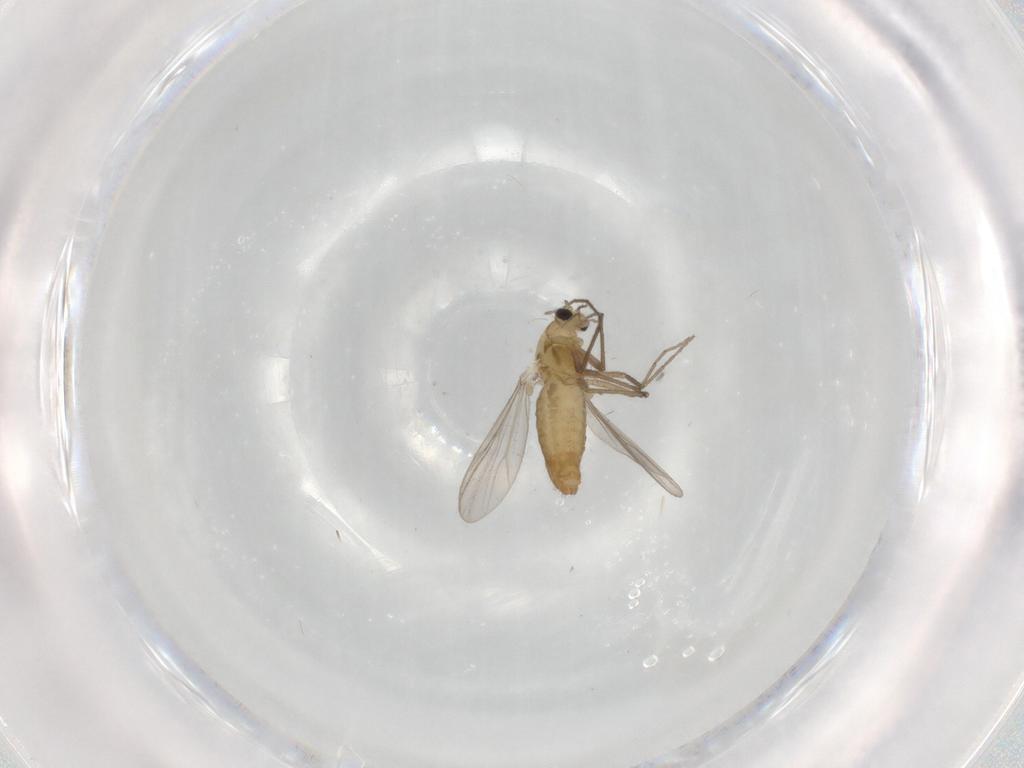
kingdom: Animalia
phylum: Arthropoda
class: Insecta
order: Diptera
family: Chironomidae
